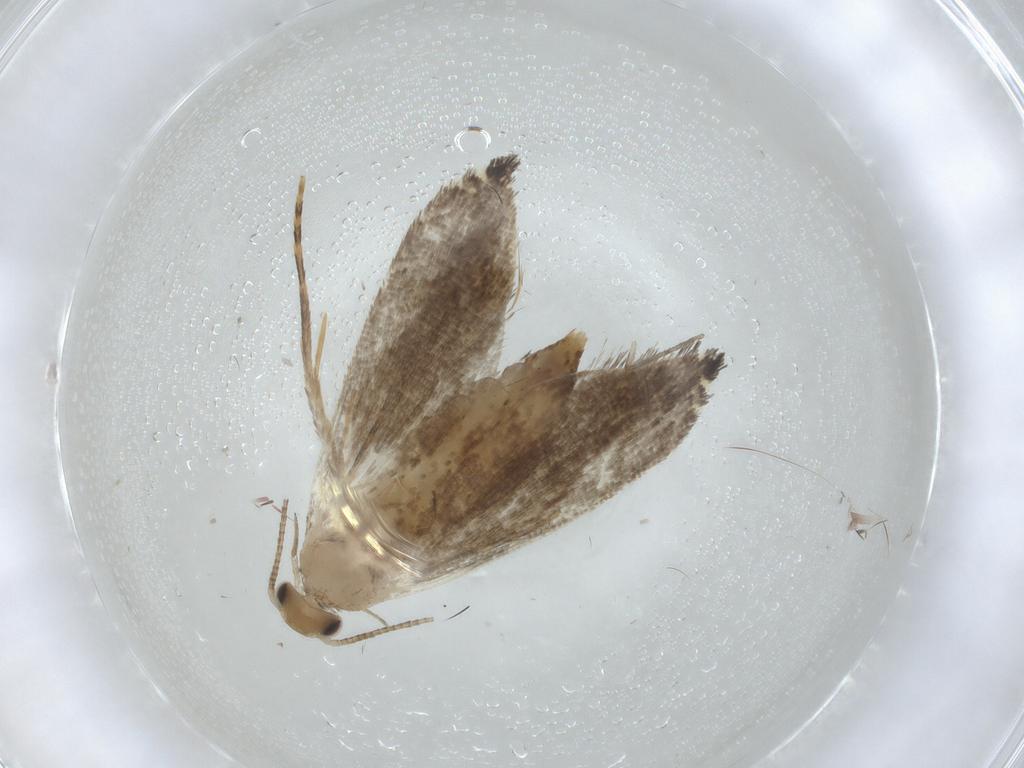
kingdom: Animalia
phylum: Arthropoda
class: Insecta
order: Lepidoptera
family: Tineidae
